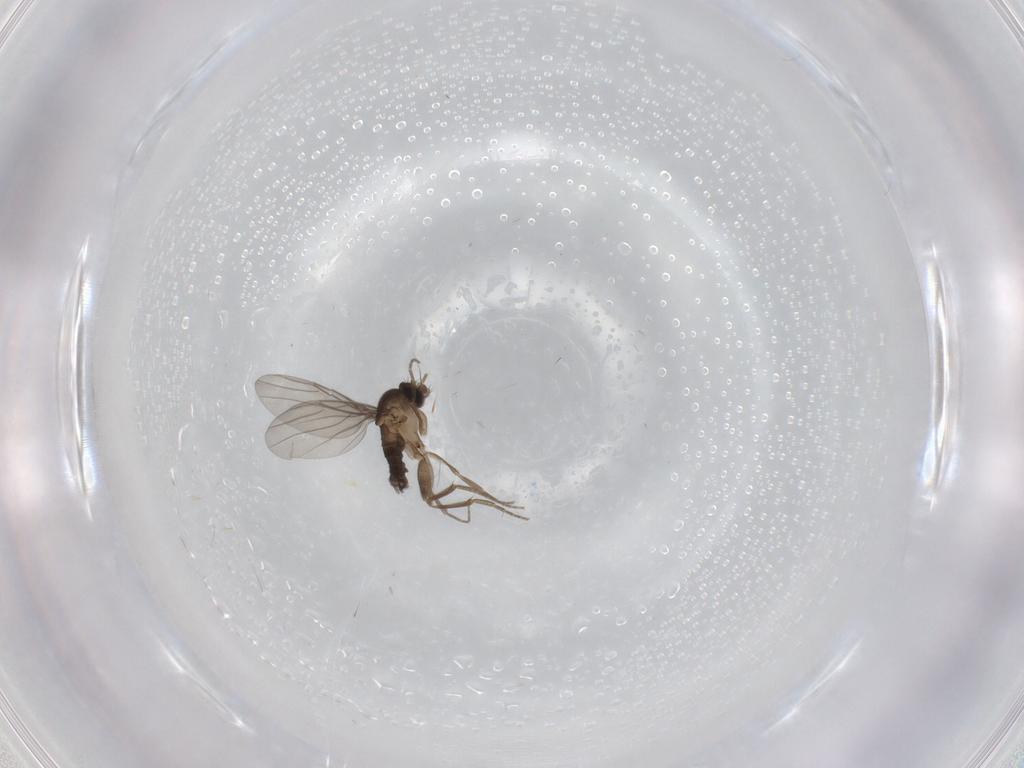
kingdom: Animalia
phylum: Arthropoda
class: Insecta
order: Diptera
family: Phoridae
